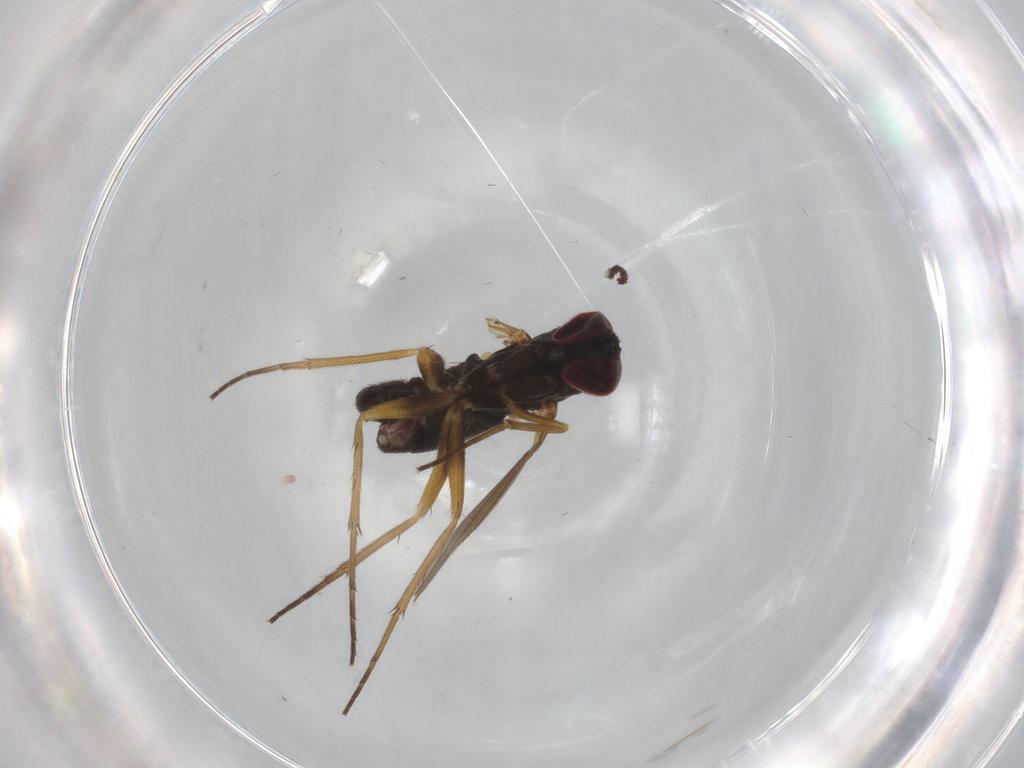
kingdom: Animalia
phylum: Arthropoda
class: Insecta
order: Diptera
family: Dolichopodidae
